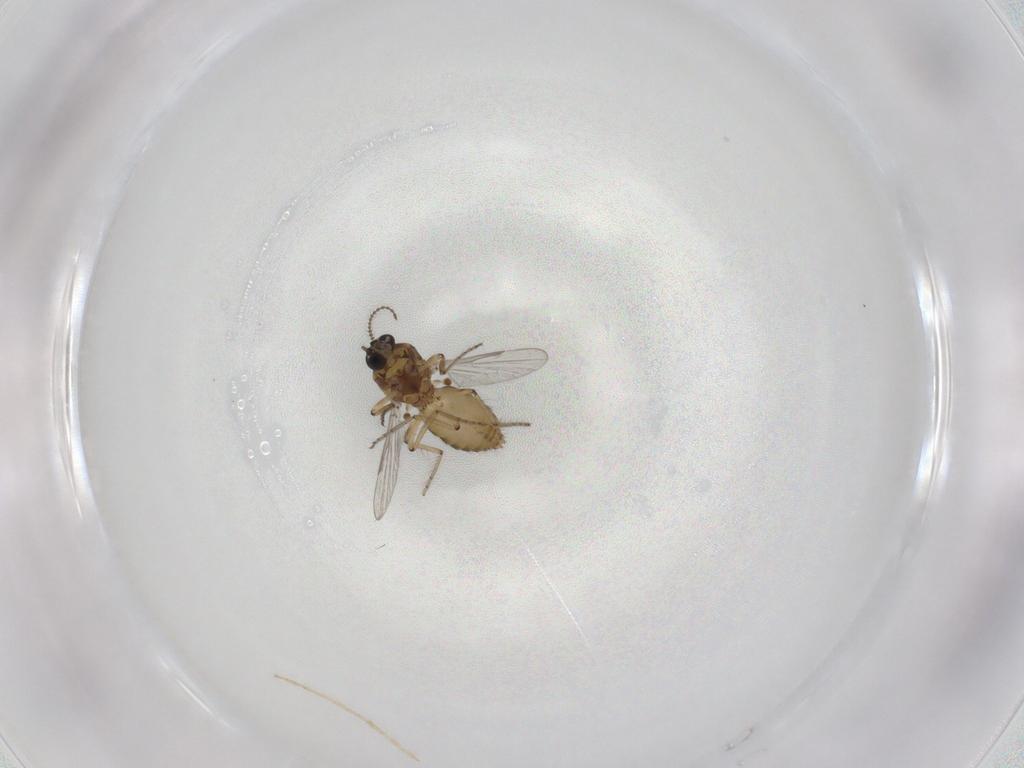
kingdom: Animalia
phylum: Arthropoda
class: Insecta
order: Diptera
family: Ceratopogonidae
